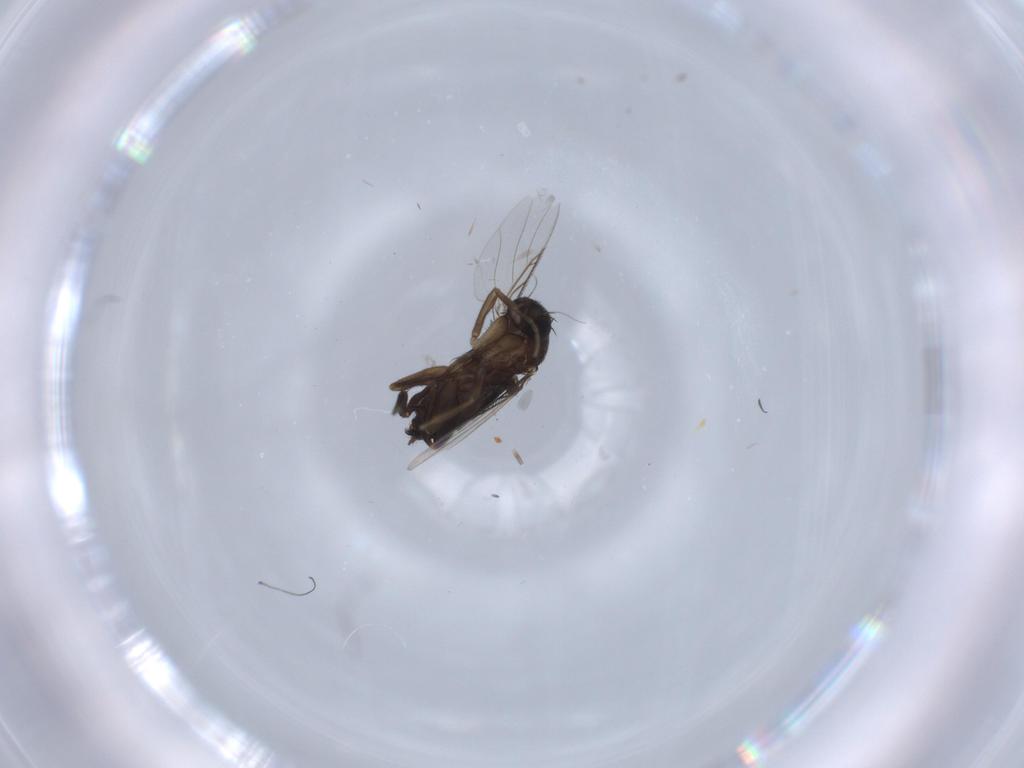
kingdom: Animalia
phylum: Arthropoda
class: Insecta
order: Diptera
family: Phoridae
